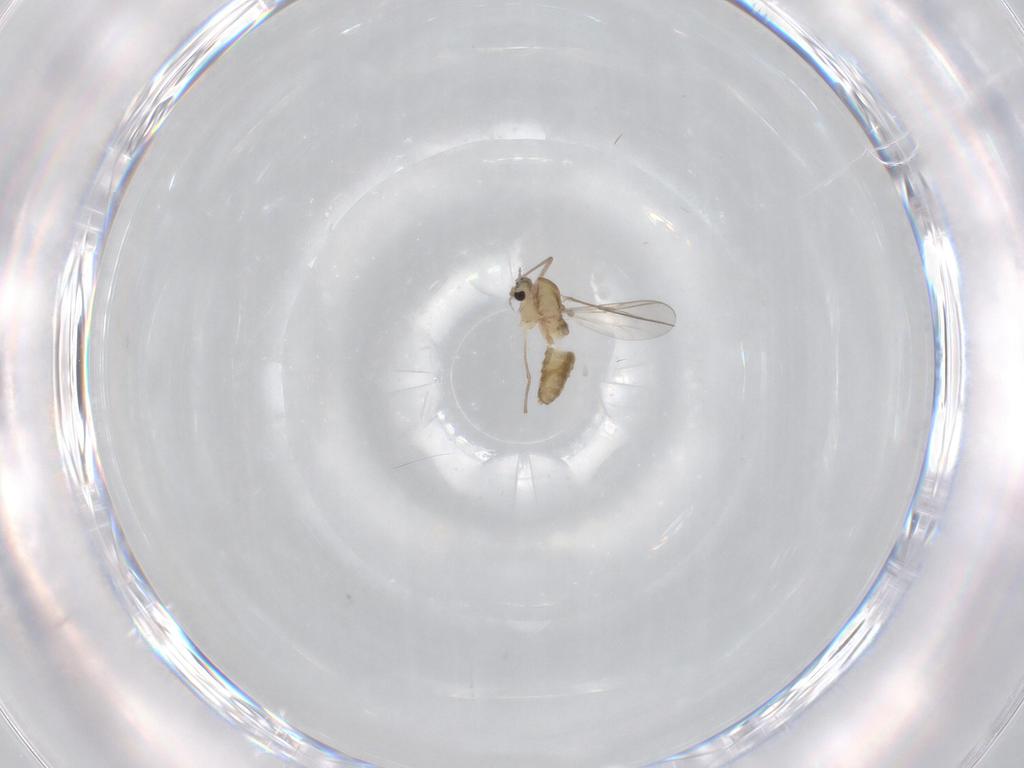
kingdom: Animalia
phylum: Arthropoda
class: Insecta
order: Diptera
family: Chironomidae
